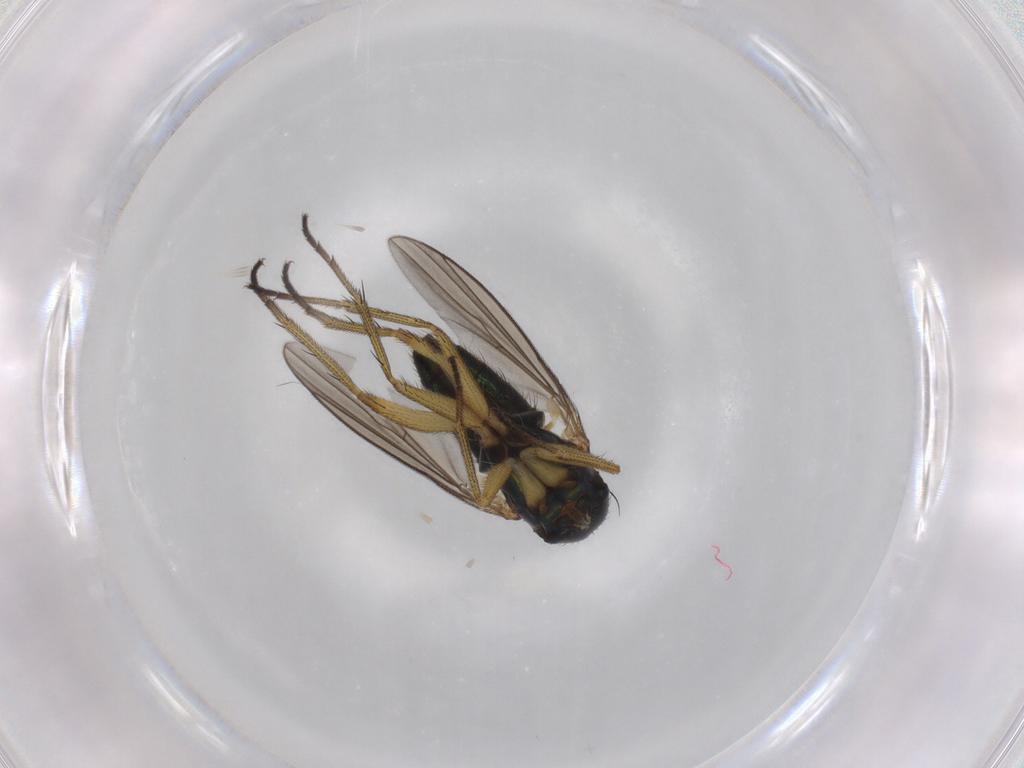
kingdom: Animalia
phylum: Arthropoda
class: Insecta
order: Diptera
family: Dolichopodidae
